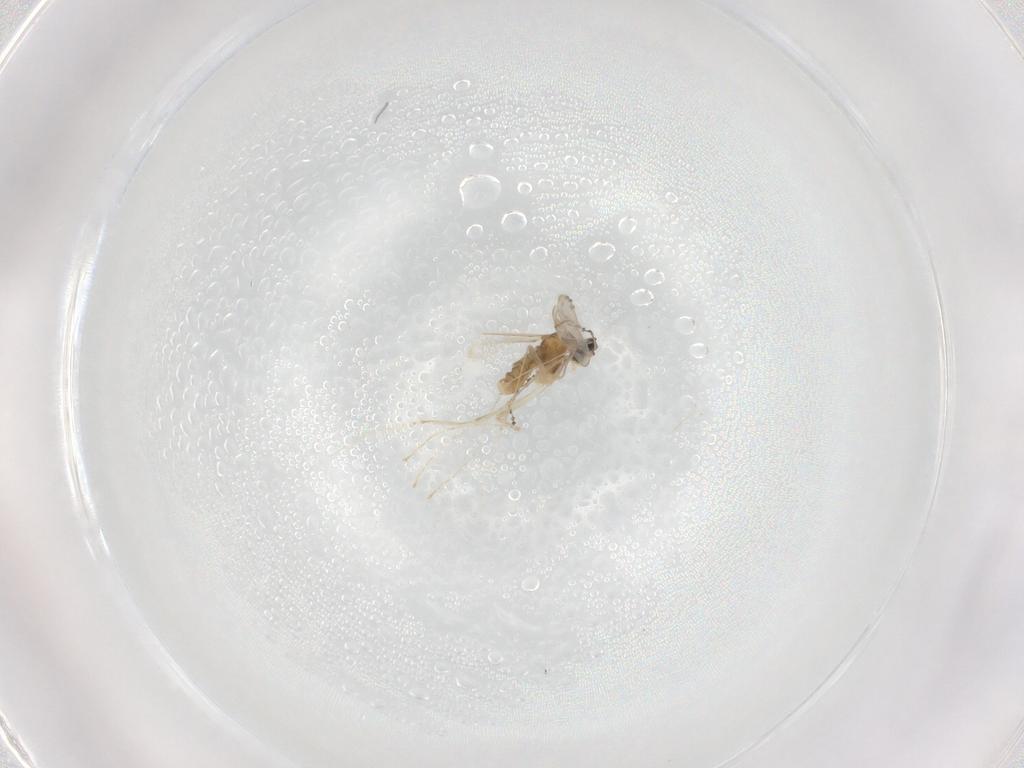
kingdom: Animalia
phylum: Arthropoda
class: Insecta
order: Diptera
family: Cecidomyiidae
